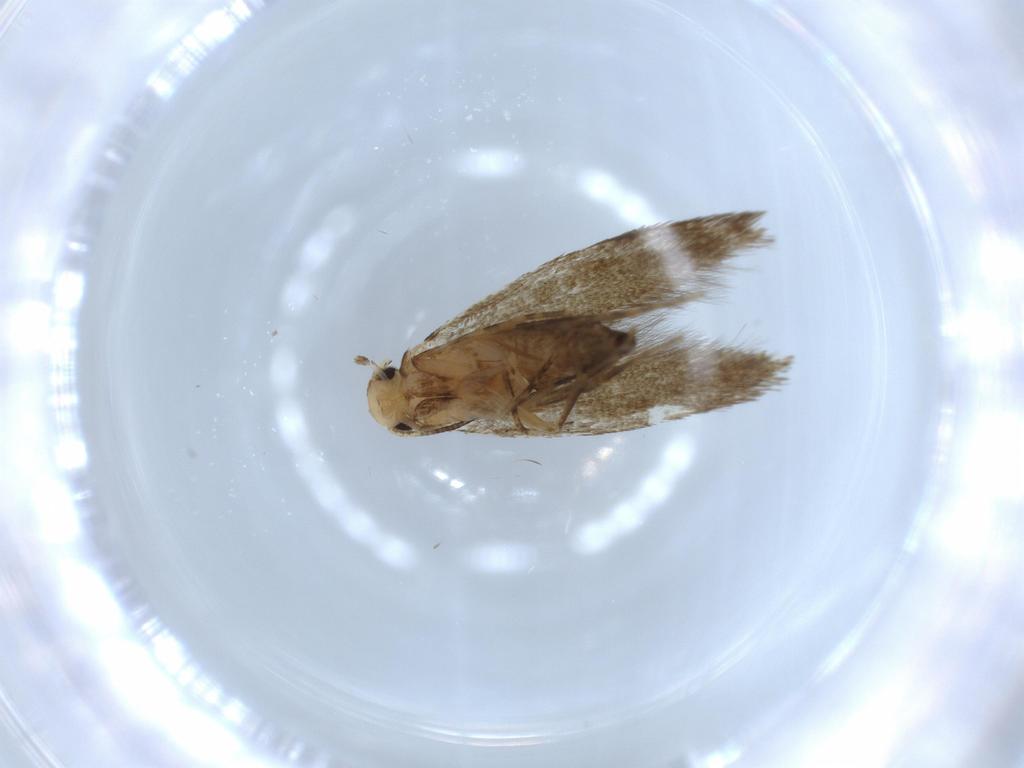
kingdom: Animalia
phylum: Arthropoda
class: Insecta
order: Lepidoptera
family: Tineidae
